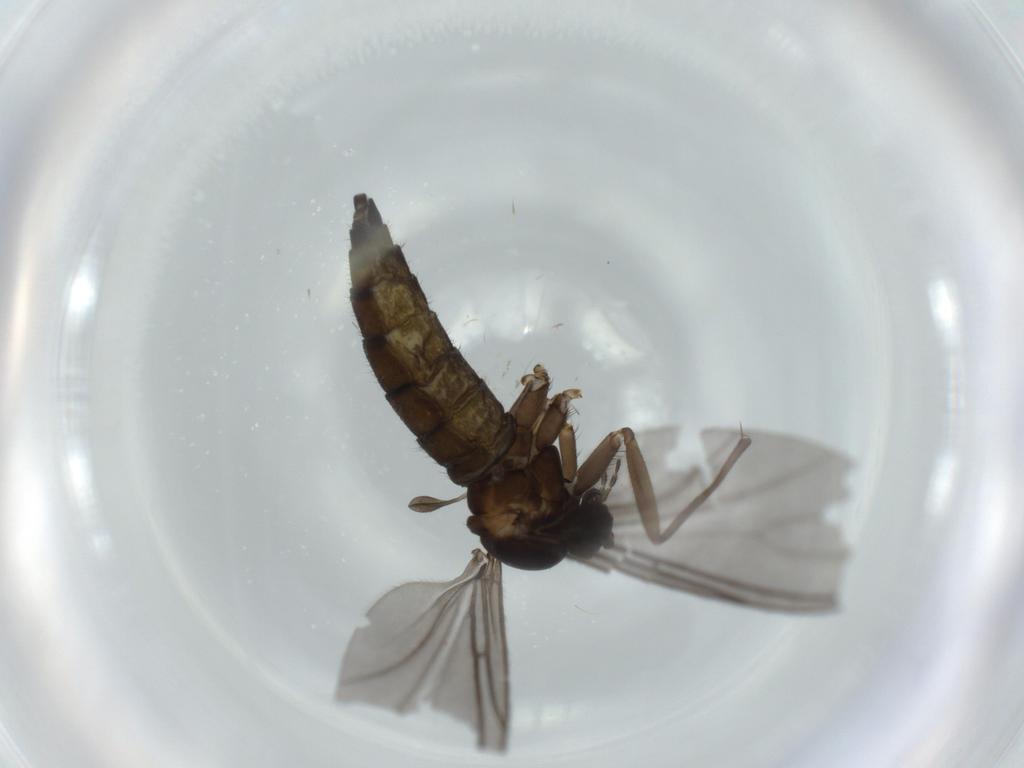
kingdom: Animalia
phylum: Arthropoda
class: Insecta
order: Diptera
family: Sciaridae
